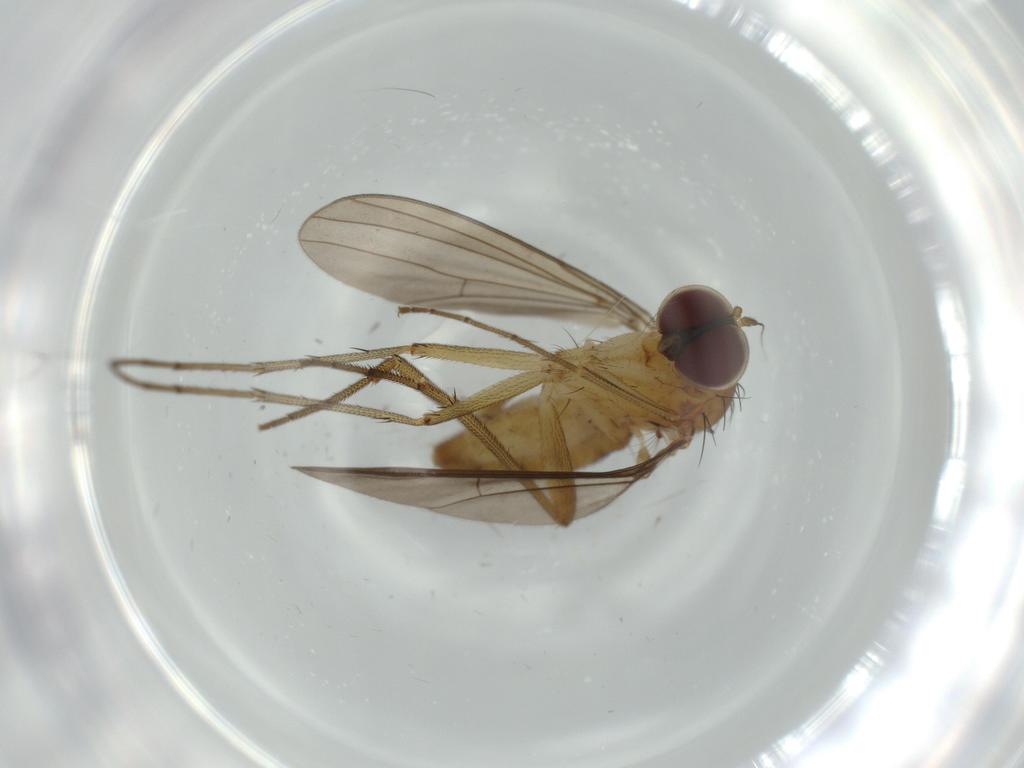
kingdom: Animalia
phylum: Arthropoda
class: Insecta
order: Diptera
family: Dolichopodidae
